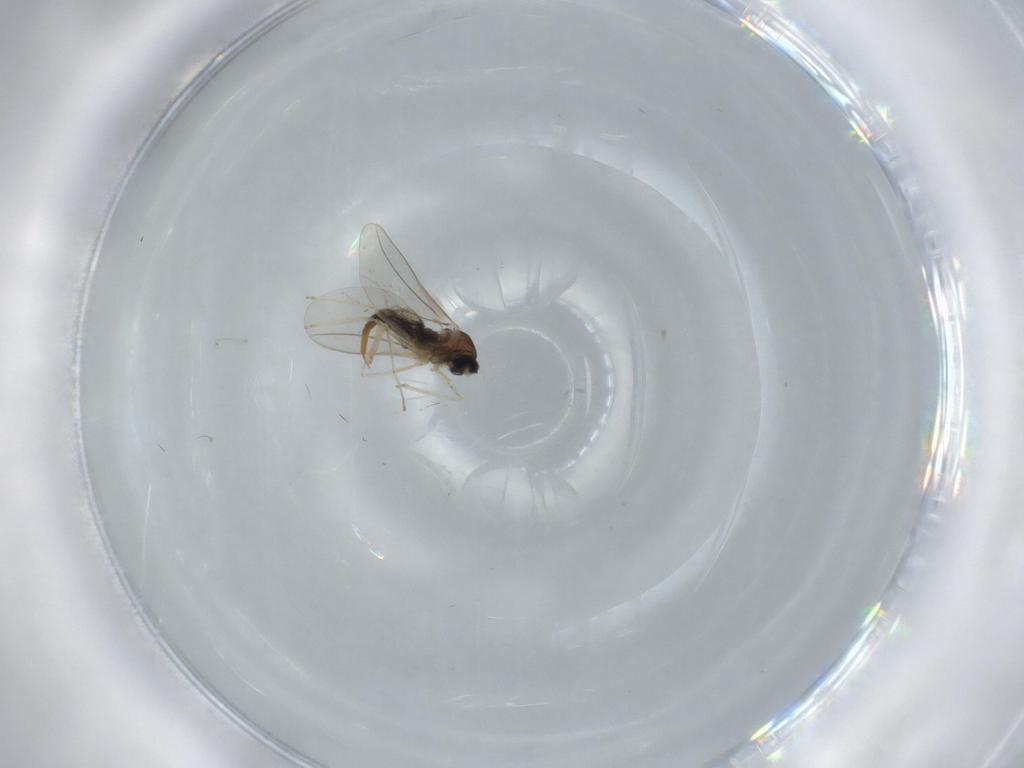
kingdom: Animalia
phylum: Arthropoda
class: Insecta
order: Diptera
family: Cecidomyiidae
